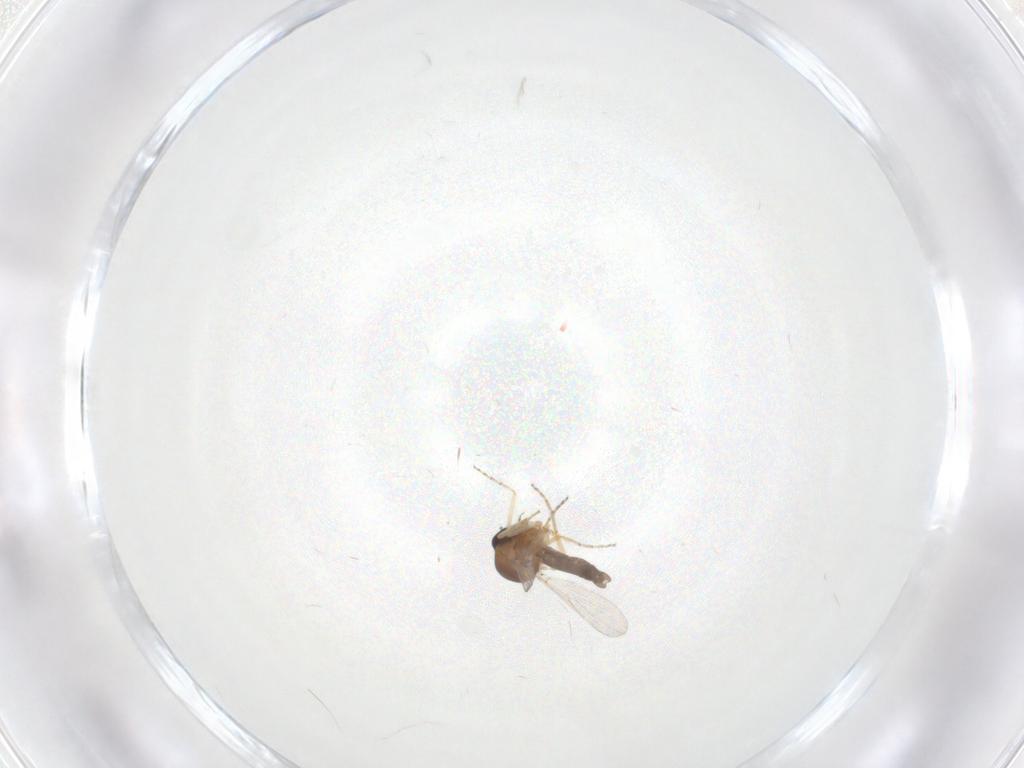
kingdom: Animalia
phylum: Arthropoda
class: Insecta
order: Diptera
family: Ceratopogonidae
